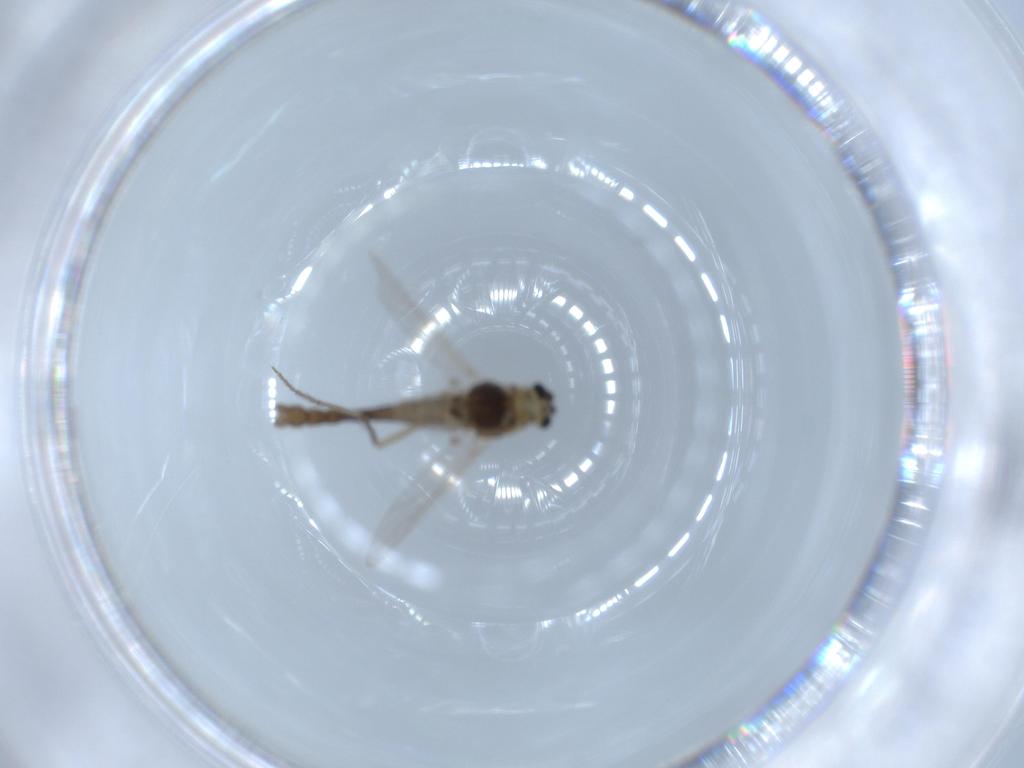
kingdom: Animalia
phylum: Arthropoda
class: Insecta
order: Diptera
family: Chironomidae
